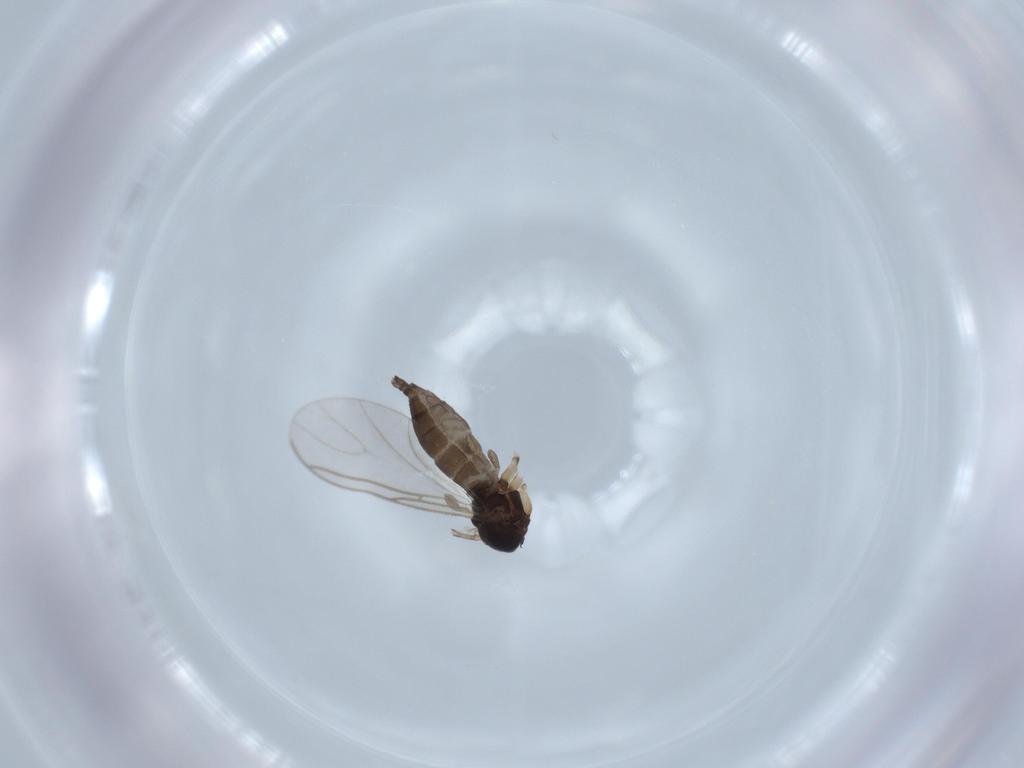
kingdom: Animalia
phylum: Arthropoda
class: Insecta
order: Diptera
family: Sciaridae
